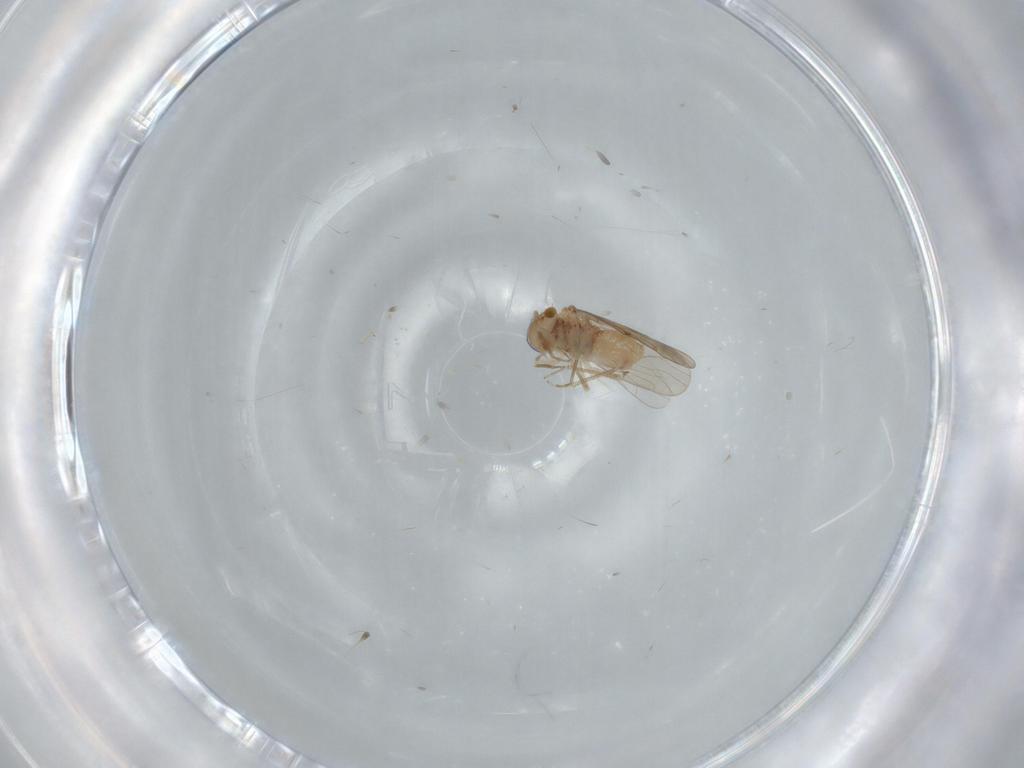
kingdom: Animalia
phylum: Arthropoda
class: Insecta
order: Psocodea
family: Ectopsocidae
